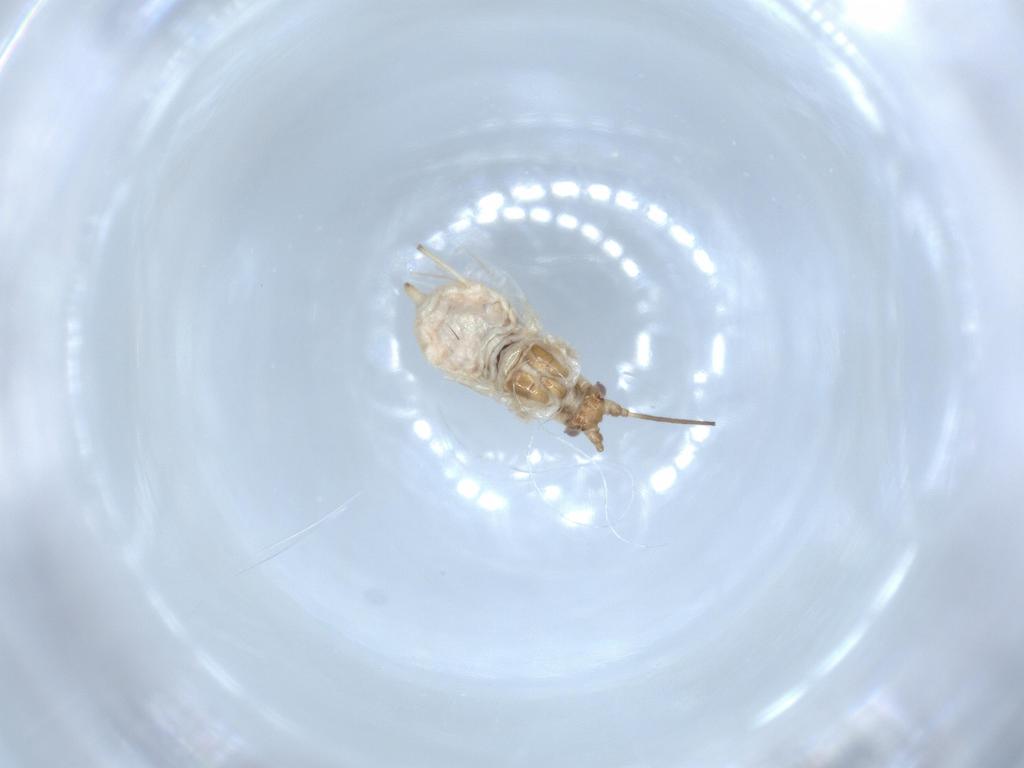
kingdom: Animalia
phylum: Arthropoda
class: Insecta
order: Hemiptera
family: Aphididae
